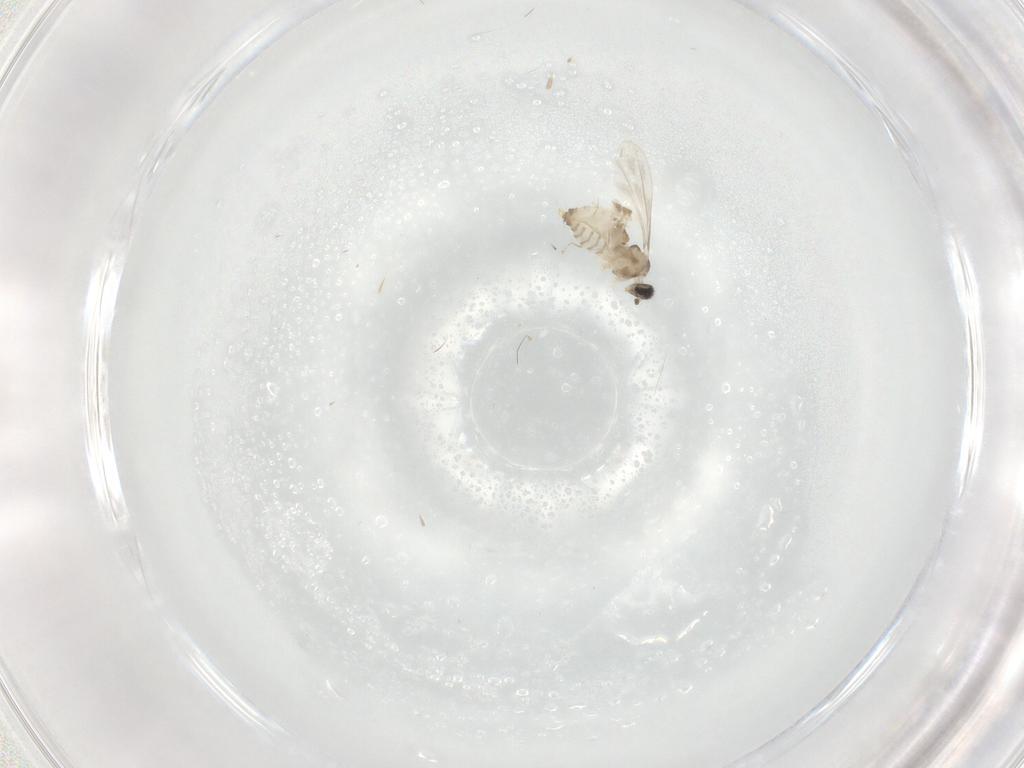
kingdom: Animalia
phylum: Arthropoda
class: Insecta
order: Diptera
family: Cecidomyiidae
